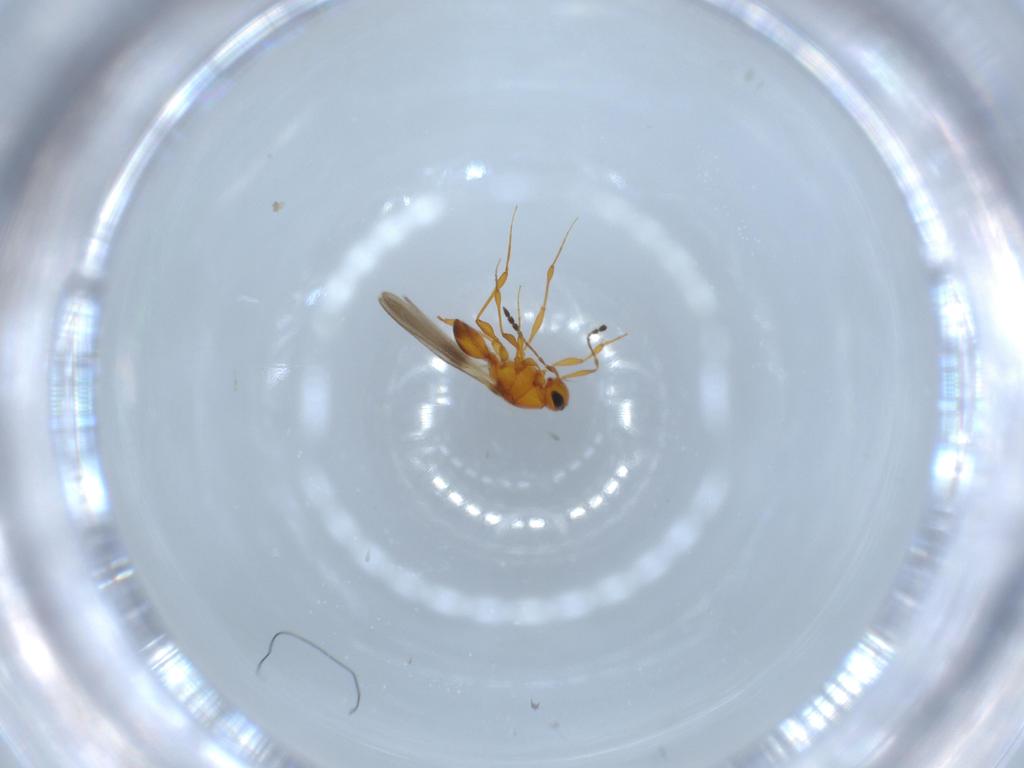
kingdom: Animalia
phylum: Arthropoda
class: Insecta
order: Hymenoptera
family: Platygastridae
